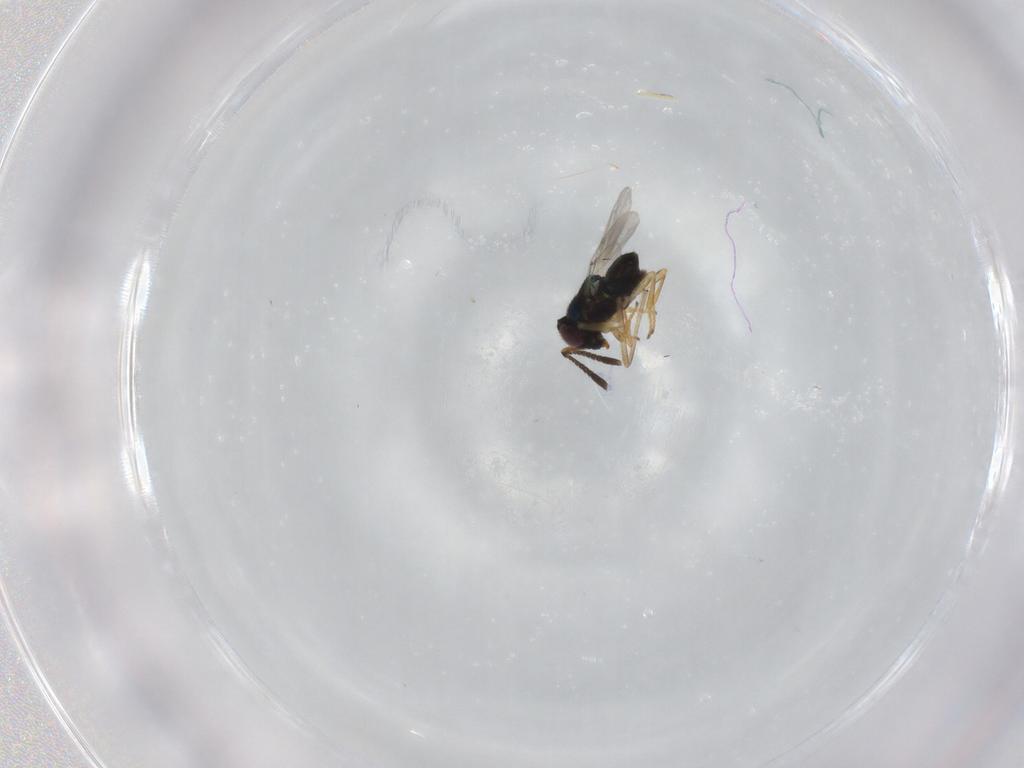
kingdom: Animalia
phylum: Arthropoda
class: Insecta
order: Hymenoptera
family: Encyrtidae
